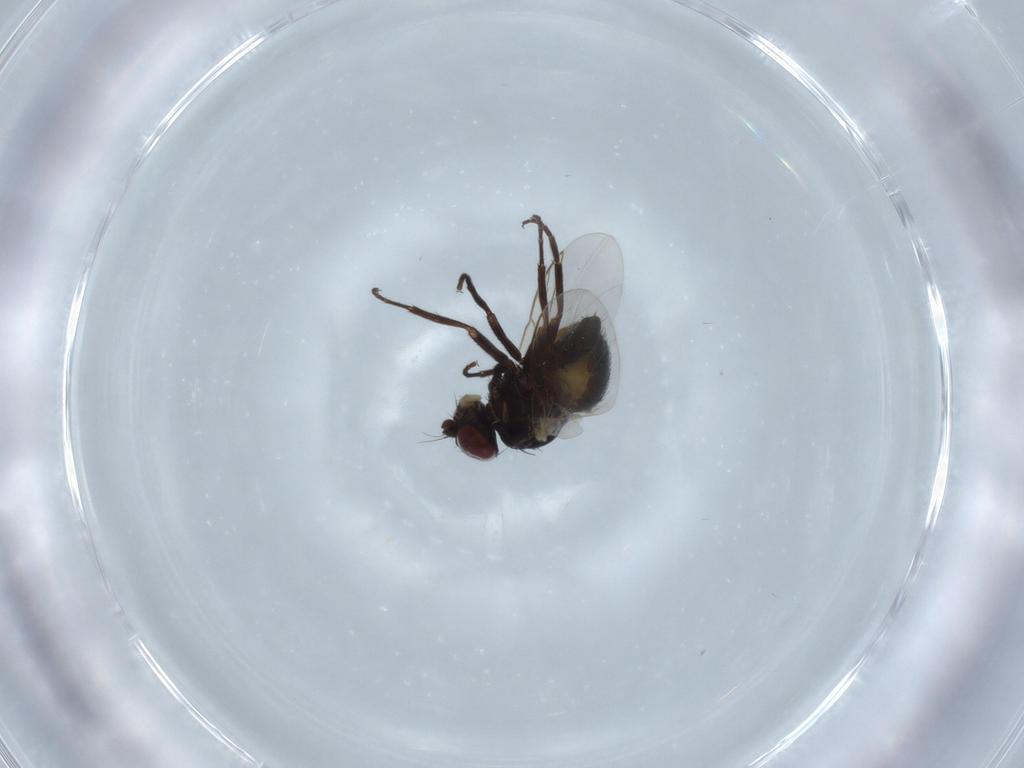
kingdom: Animalia
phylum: Arthropoda
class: Insecta
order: Diptera
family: Ceratopogonidae
